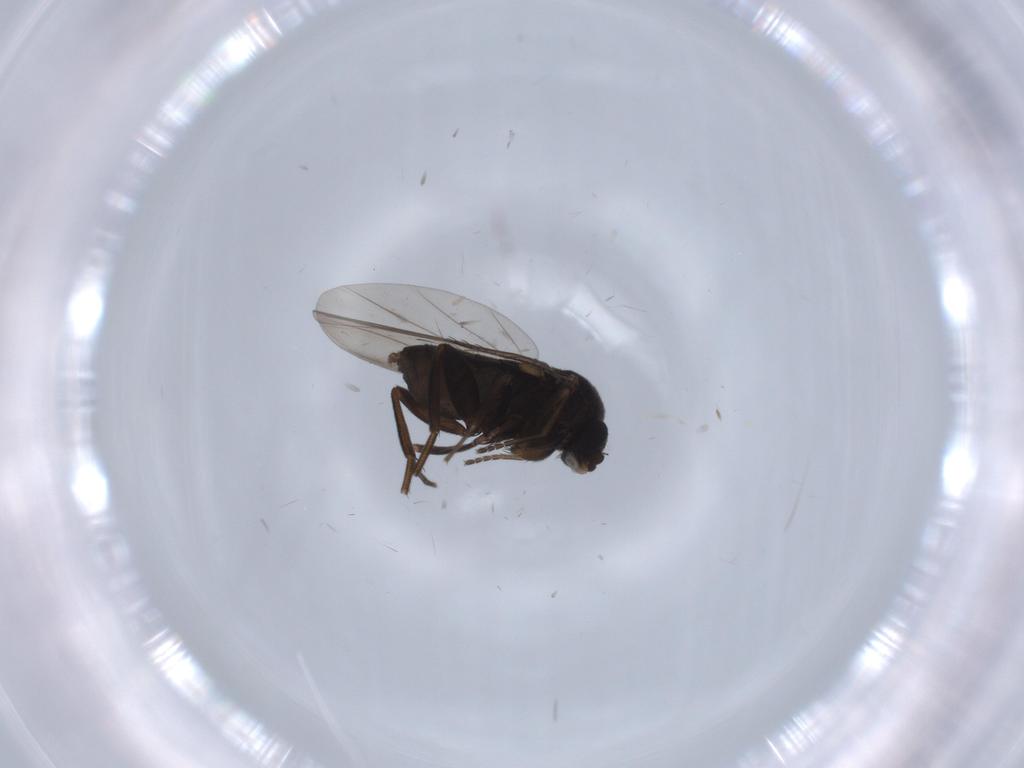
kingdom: Animalia
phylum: Arthropoda
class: Insecta
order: Diptera
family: Phoridae
